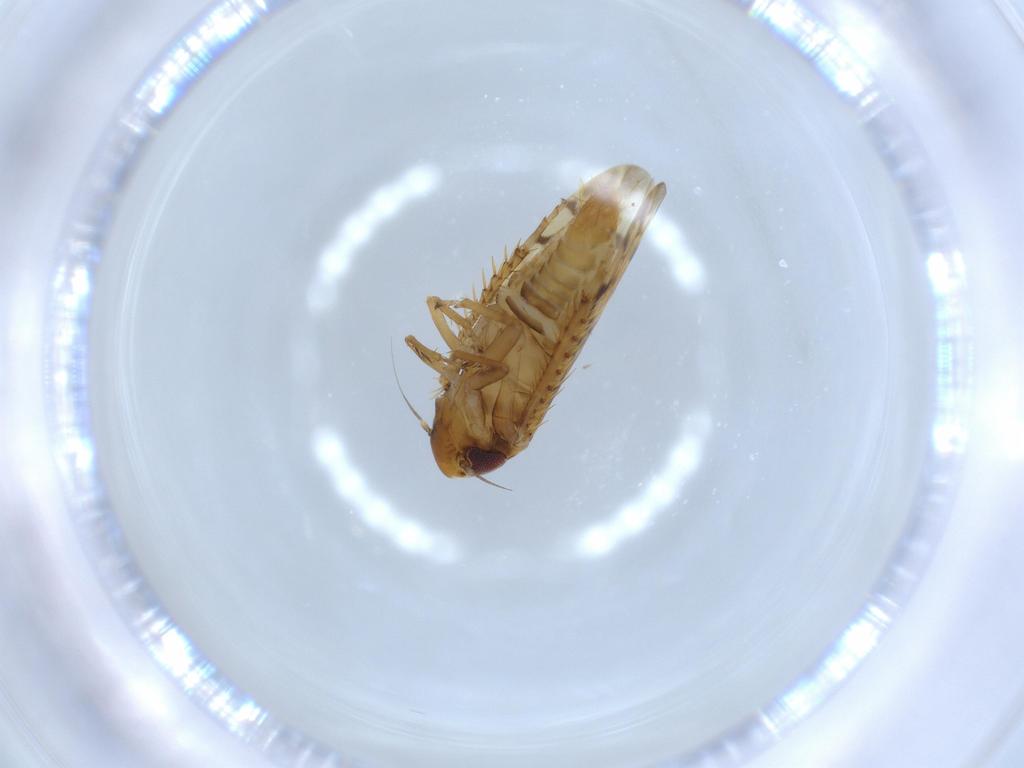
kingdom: Animalia
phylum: Arthropoda
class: Insecta
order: Hemiptera
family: Cicadellidae
